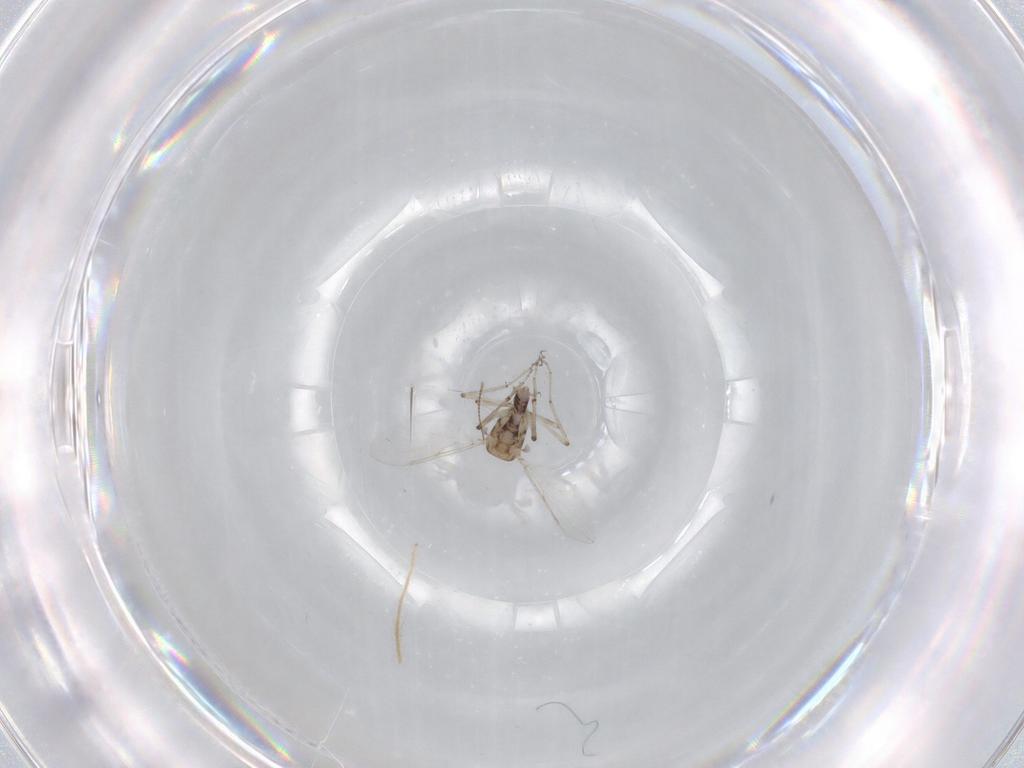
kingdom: Animalia
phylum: Arthropoda
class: Insecta
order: Diptera
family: Ceratopogonidae
